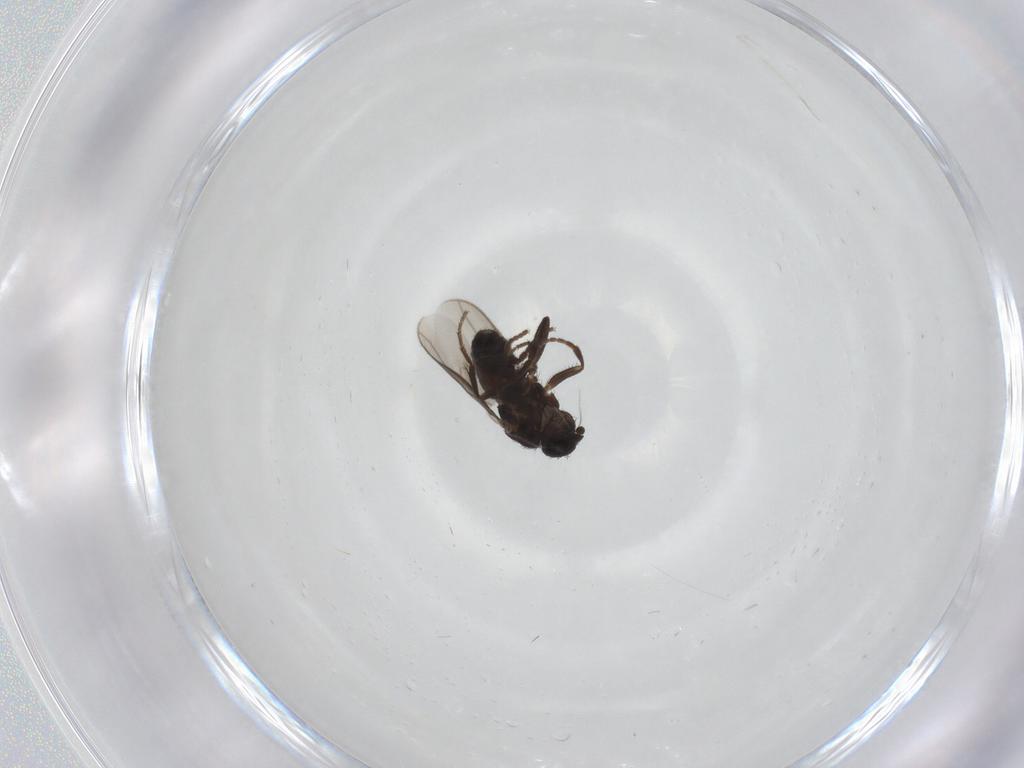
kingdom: Animalia
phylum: Arthropoda
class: Insecta
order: Diptera
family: Sphaeroceridae
